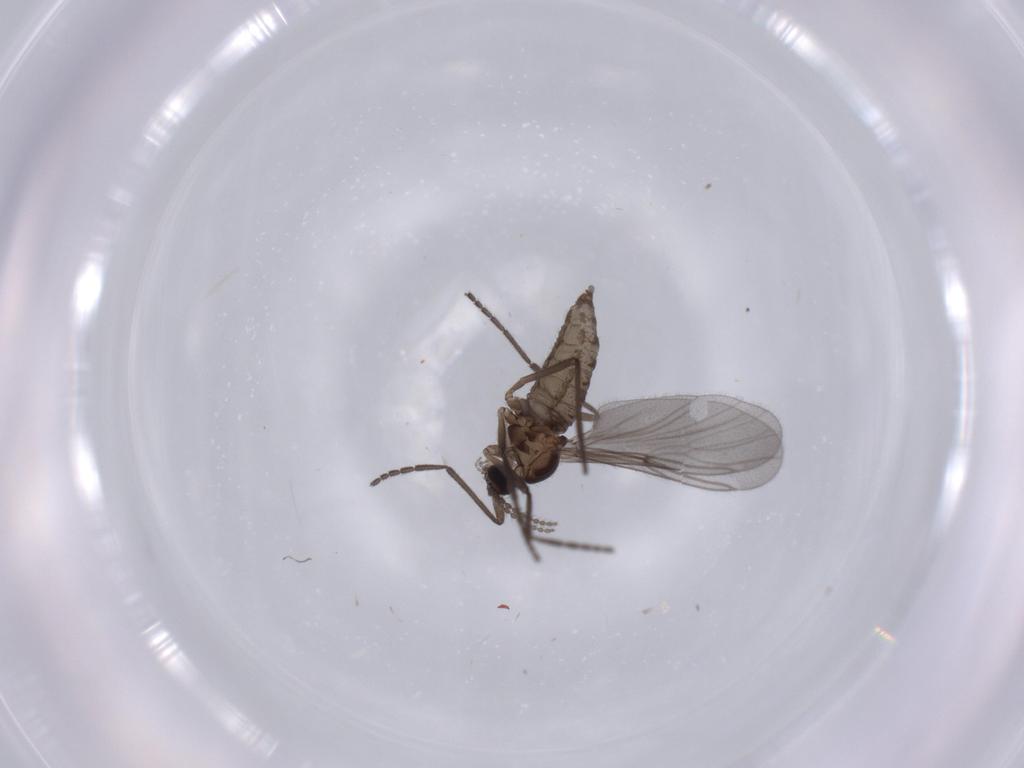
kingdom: Animalia
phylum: Arthropoda
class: Insecta
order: Diptera
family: Cecidomyiidae
